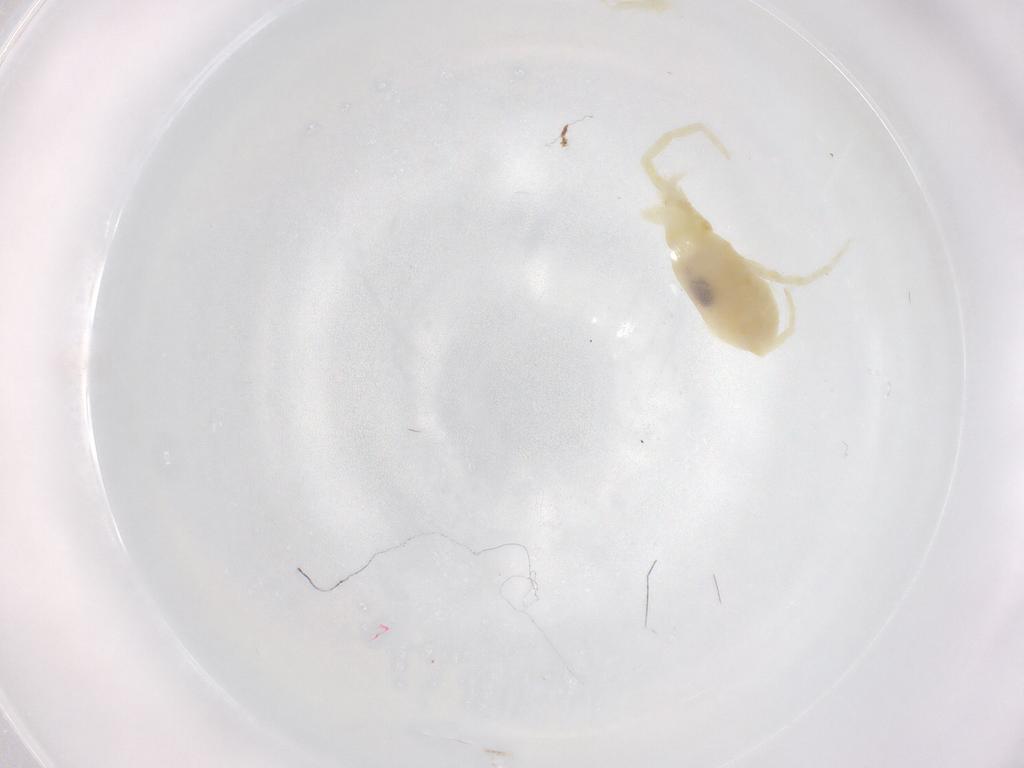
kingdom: Animalia
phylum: Arthropoda
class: Arachnida
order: Trombidiformes
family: Stigmaeidae
